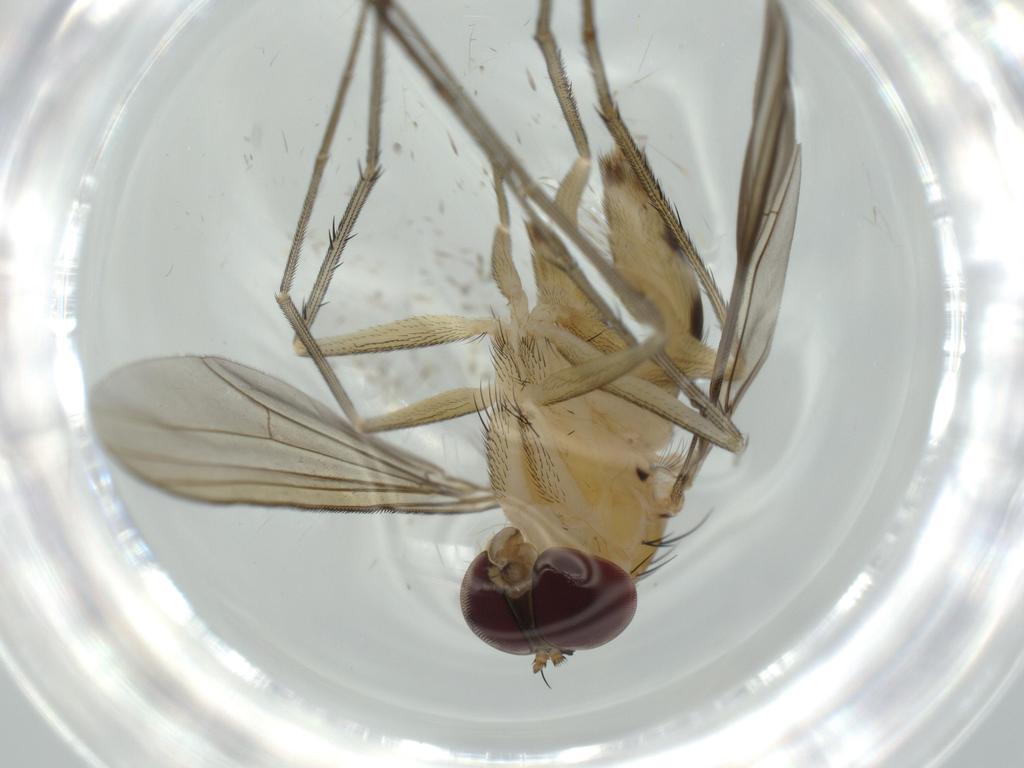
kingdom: Animalia
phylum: Arthropoda
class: Insecta
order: Diptera
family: Dolichopodidae
